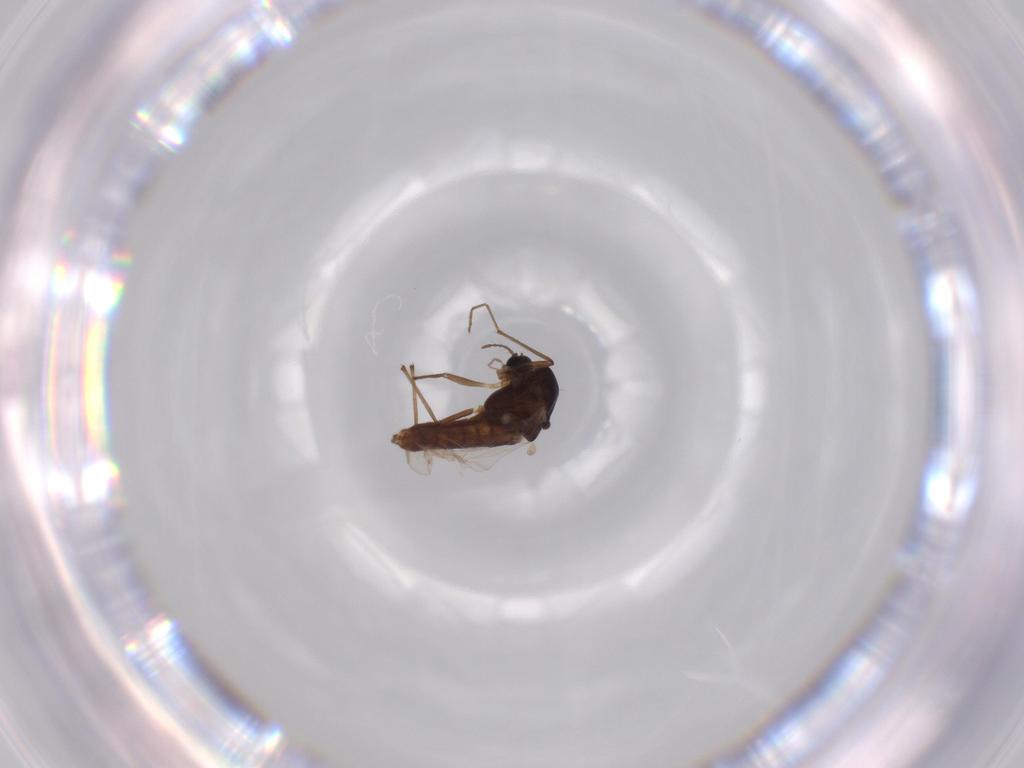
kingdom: Animalia
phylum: Arthropoda
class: Insecta
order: Diptera
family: Chironomidae
